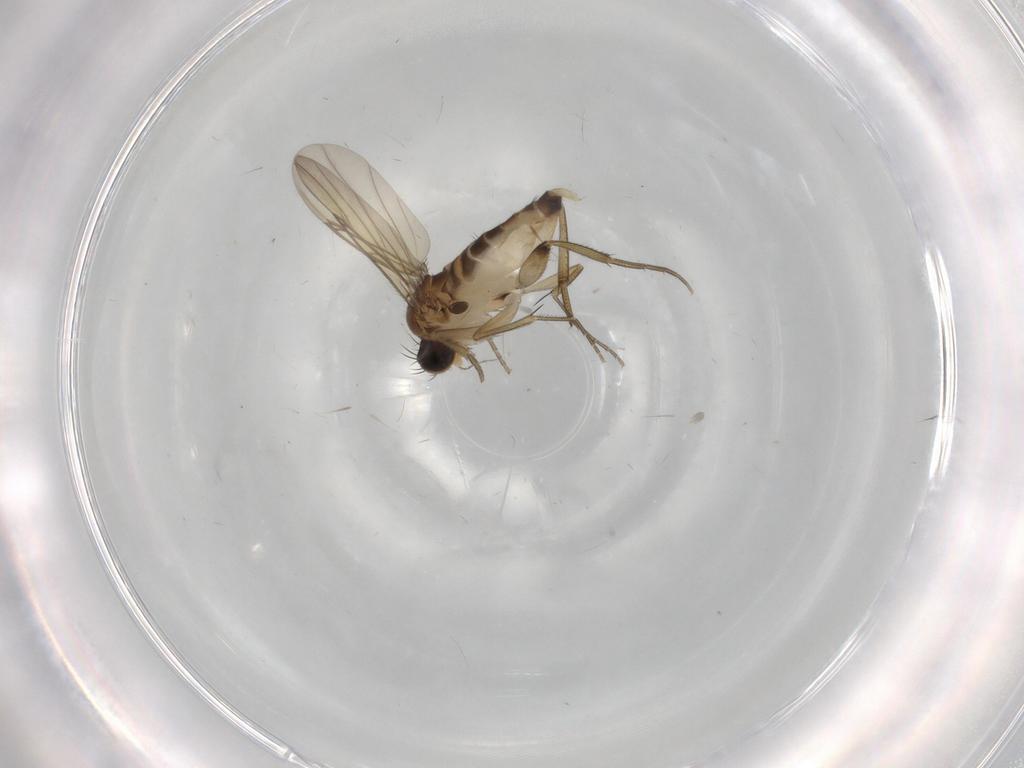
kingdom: Animalia
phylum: Arthropoda
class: Insecta
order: Diptera
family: Phoridae
